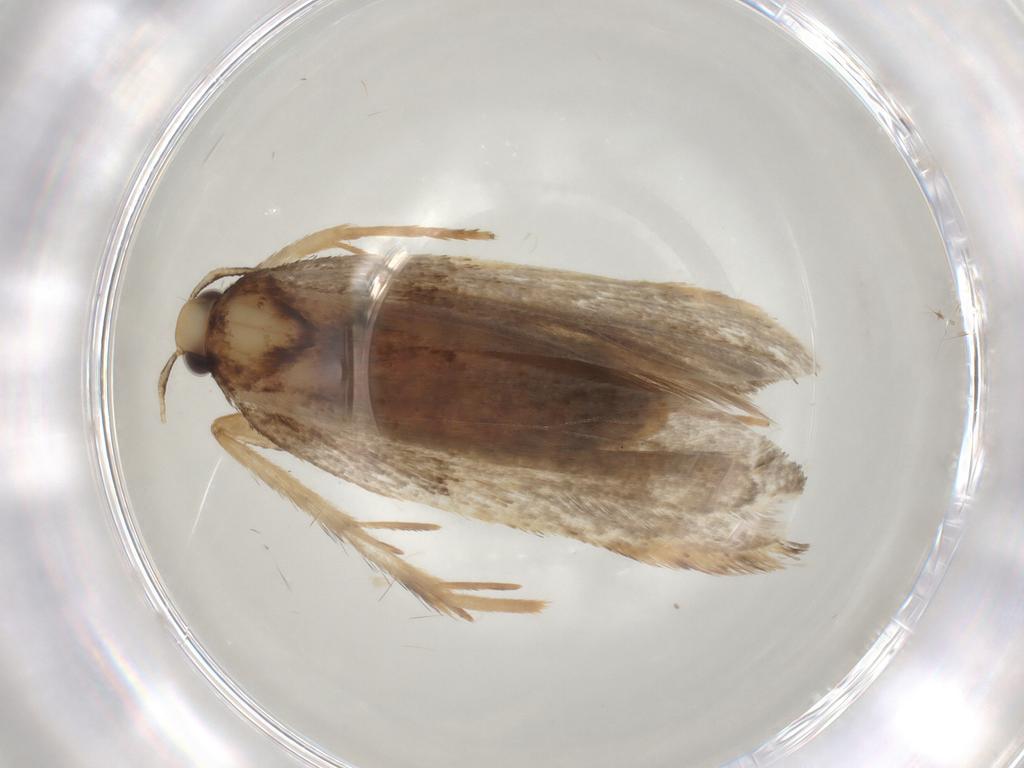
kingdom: Animalia
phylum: Arthropoda
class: Insecta
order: Lepidoptera
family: Lecithoceridae
